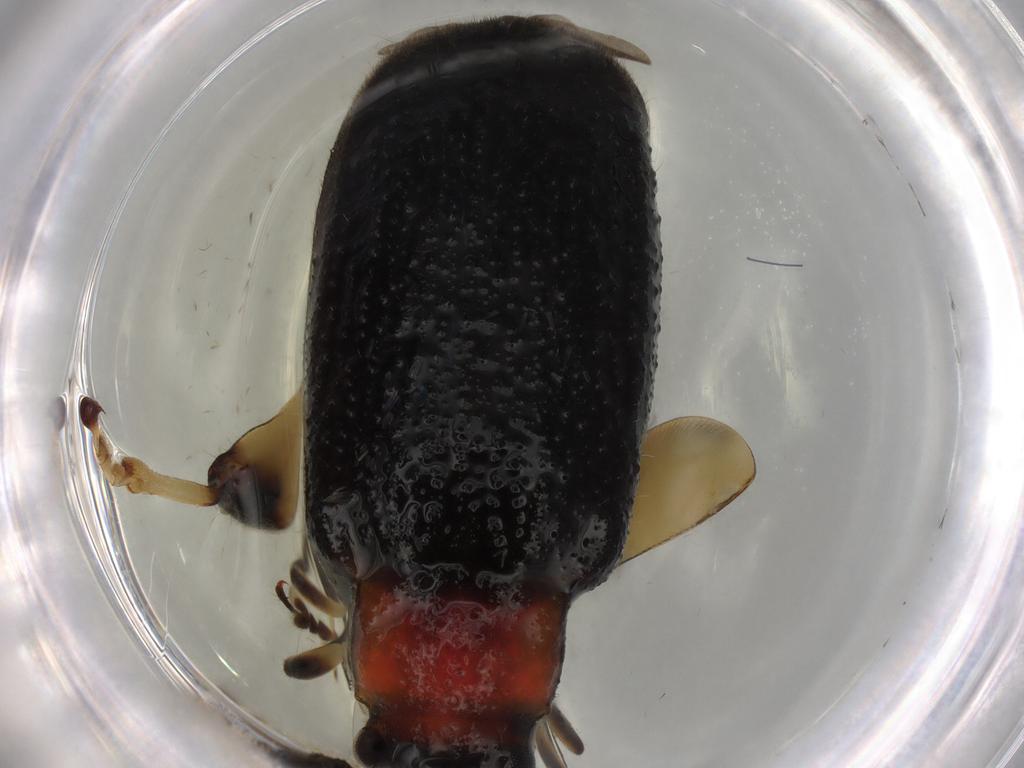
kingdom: Animalia
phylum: Arthropoda
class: Insecta
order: Coleoptera
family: Chrysomelidae
